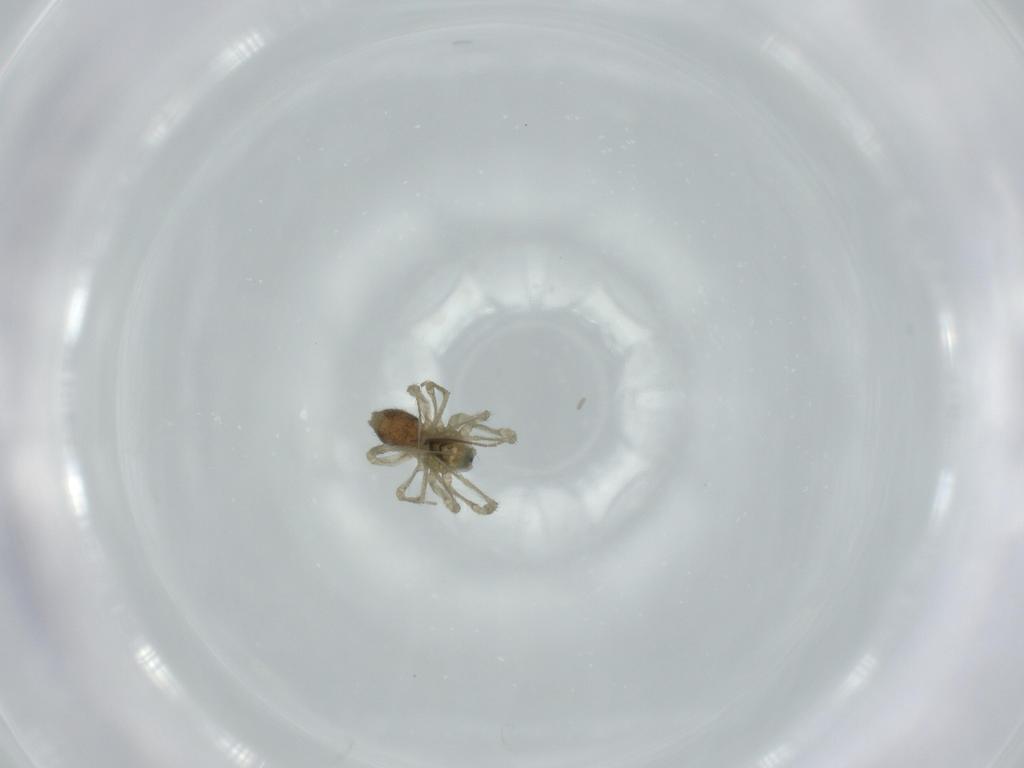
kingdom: Animalia
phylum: Arthropoda
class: Arachnida
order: Araneae
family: Linyphiidae
